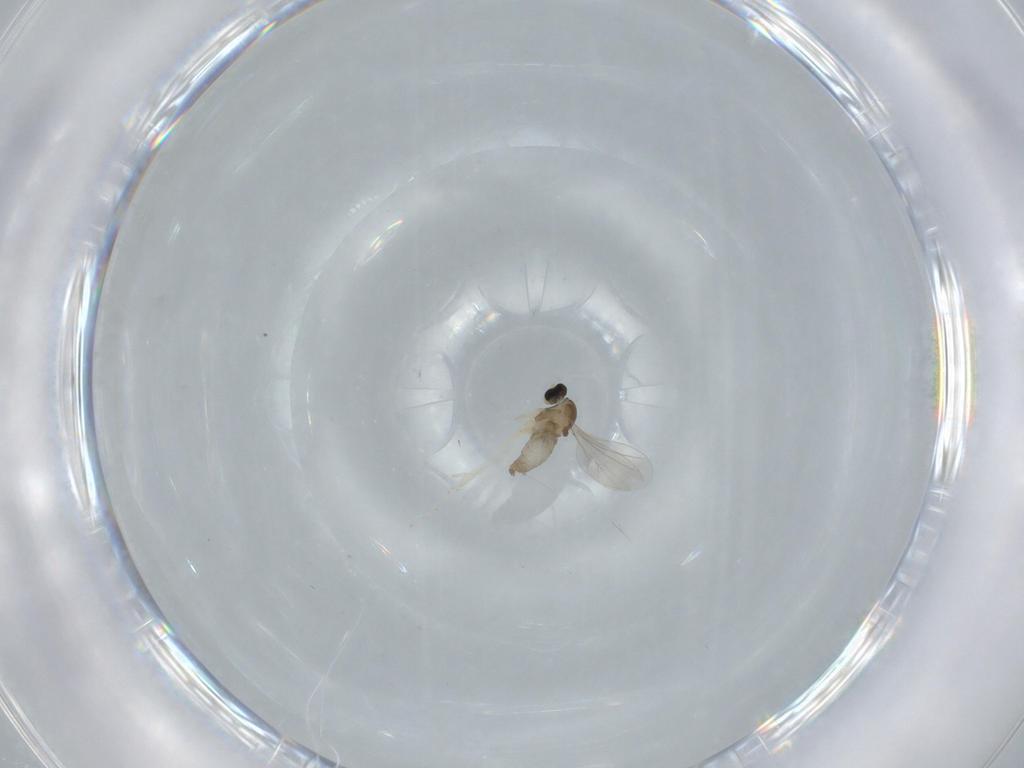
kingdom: Animalia
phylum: Arthropoda
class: Insecta
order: Diptera
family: Cecidomyiidae
